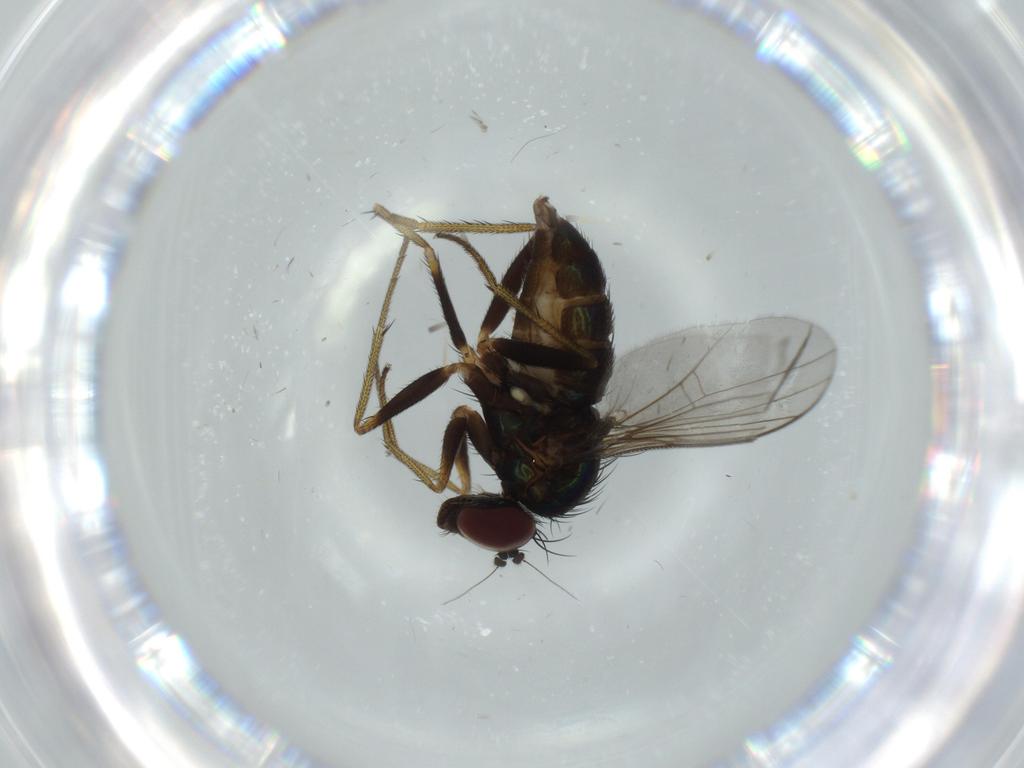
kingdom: Animalia
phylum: Arthropoda
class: Insecta
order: Diptera
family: Dolichopodidae
